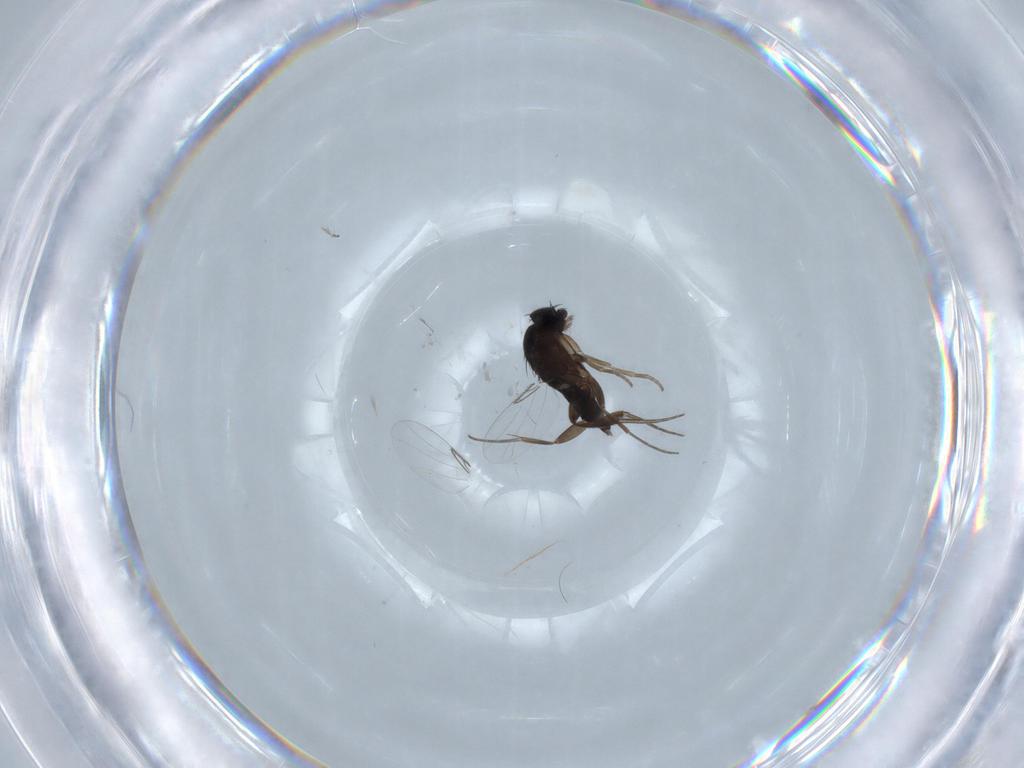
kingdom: Animalia
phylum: Arthropoda
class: Insecta
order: Diptera
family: Phoridae
